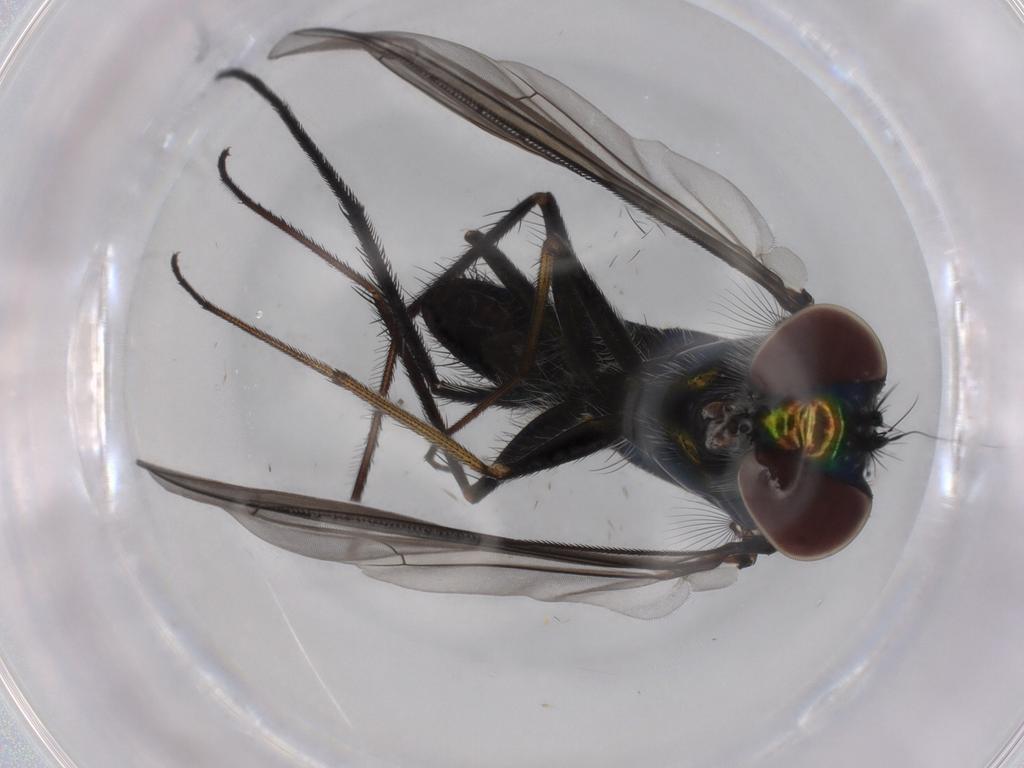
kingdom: Animalia
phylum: Arthropoda
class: Insecta
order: Diptera
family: Dolichopodidae
